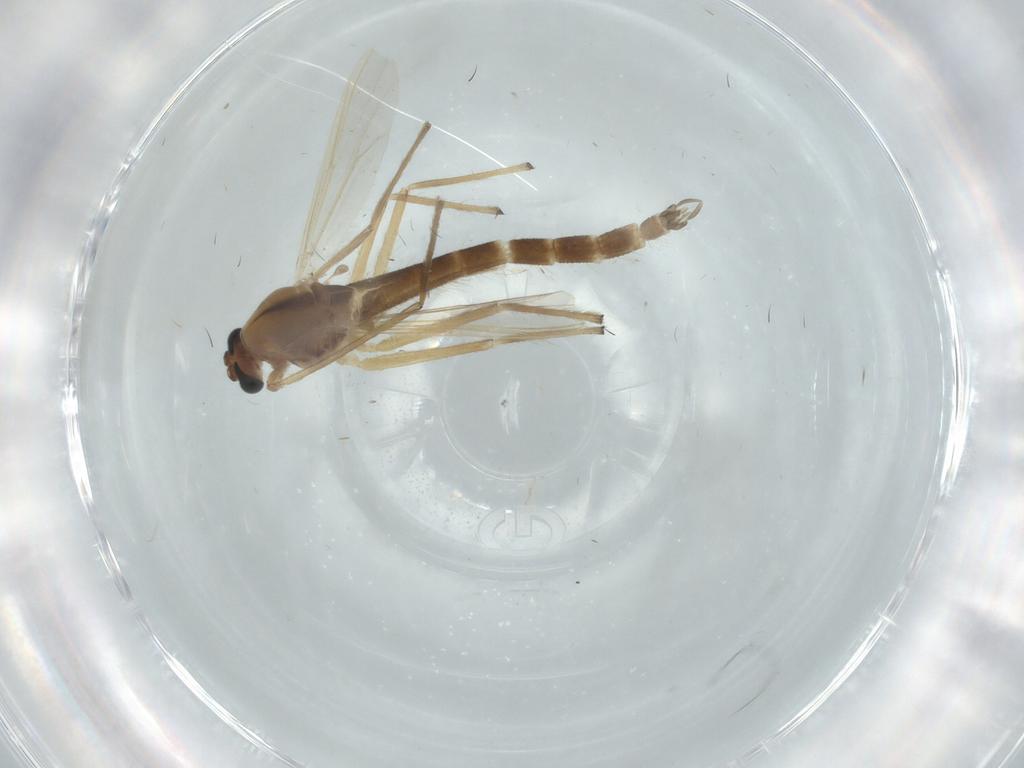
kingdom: Animalia
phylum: Arthropoda
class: Insecta
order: Diptera
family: Chironomidae
